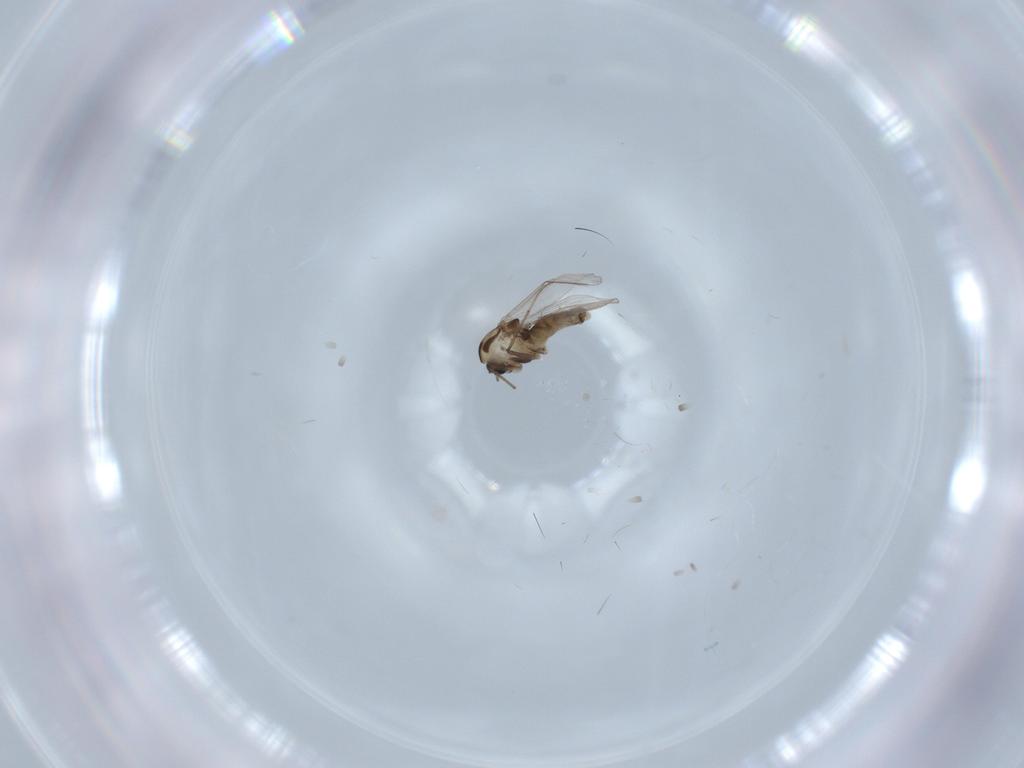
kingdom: Animalia
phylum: Arthropoda
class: Insecta
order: Diptera
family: Chironomidae
